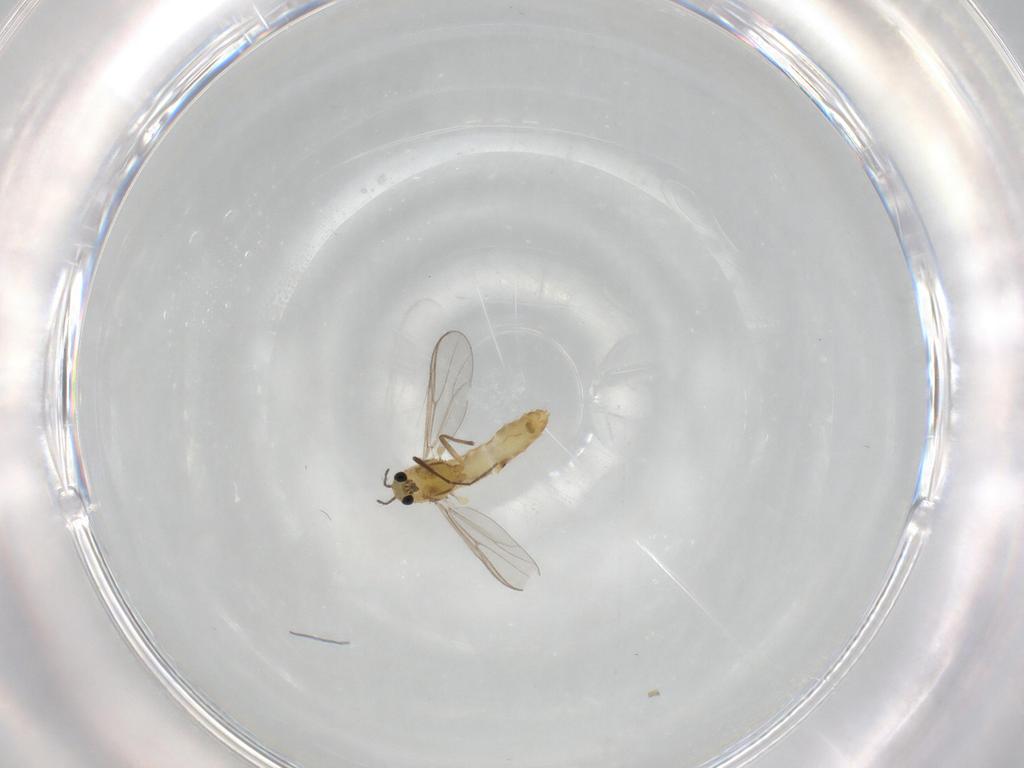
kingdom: Animalia
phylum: Arthropoda
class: Insecta
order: Diptera
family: Chironomidae
